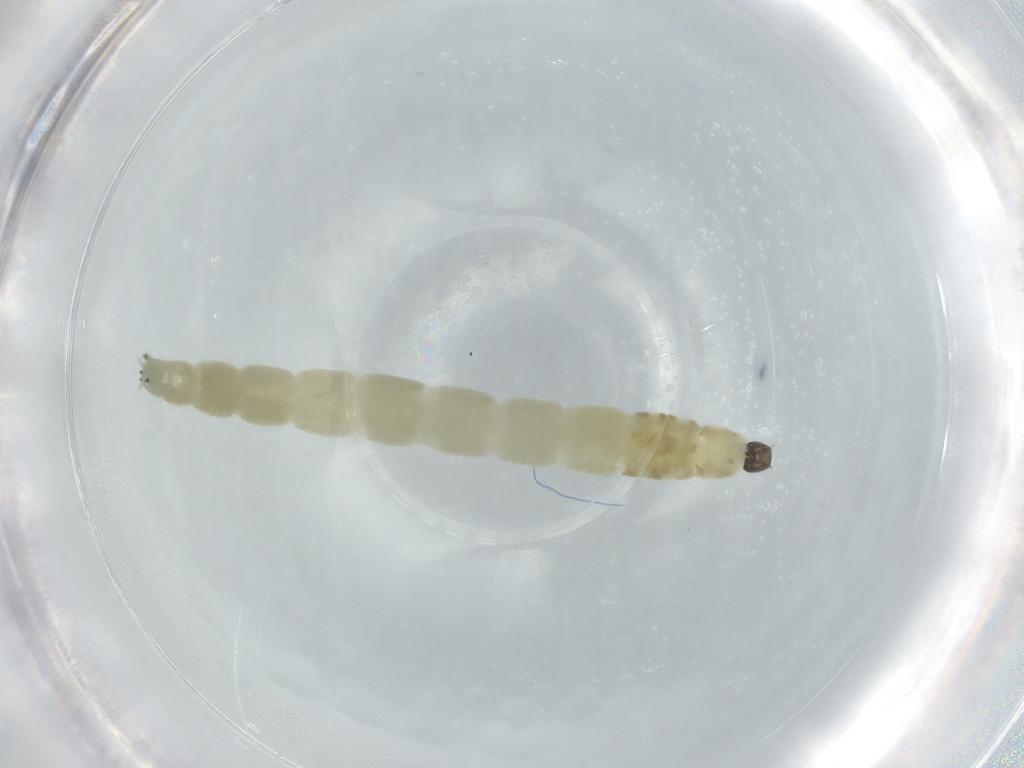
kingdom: Animalia
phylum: Arthropoda
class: Insecta
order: Diptera
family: Chironomidae
